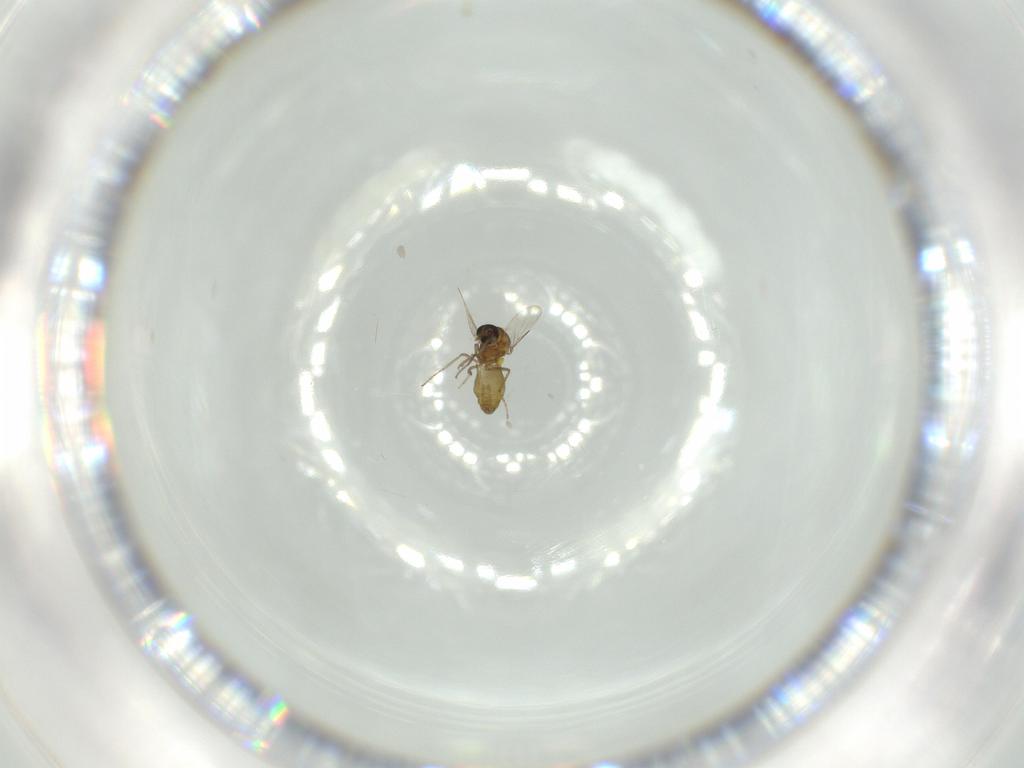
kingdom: Animalia
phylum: Arthropoda
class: Insecta
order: Diptera
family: Ceratopogonidae
